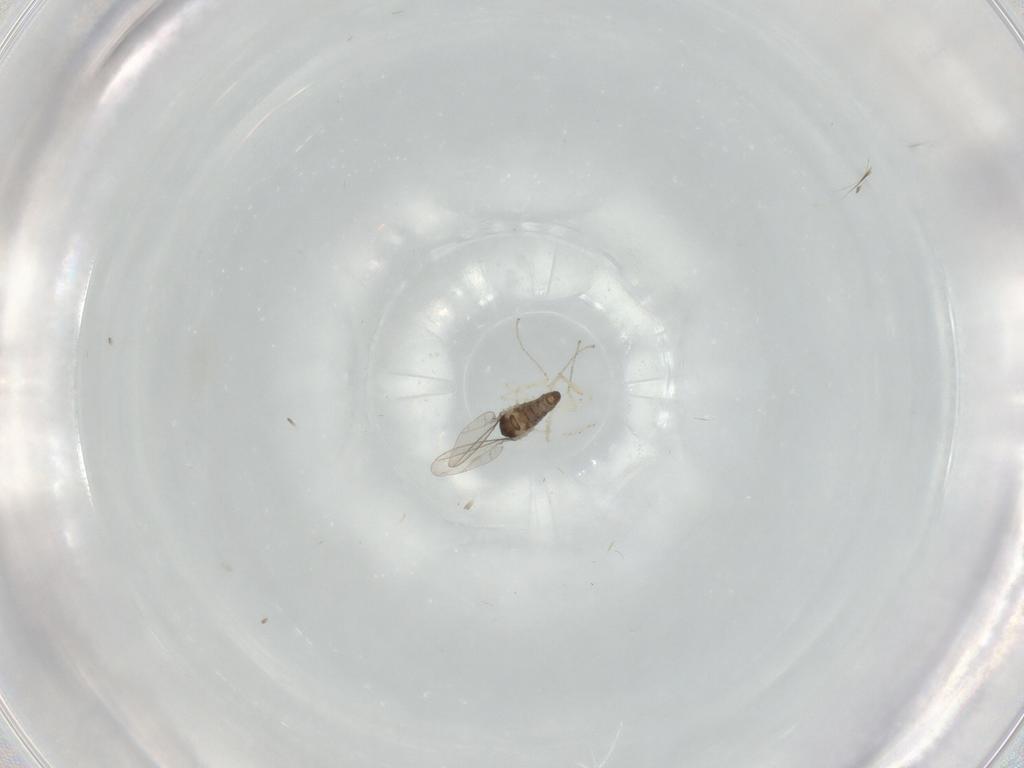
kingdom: Animalia
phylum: Arthropoda
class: Insecta
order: Diptera
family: Cecidomyiidae
